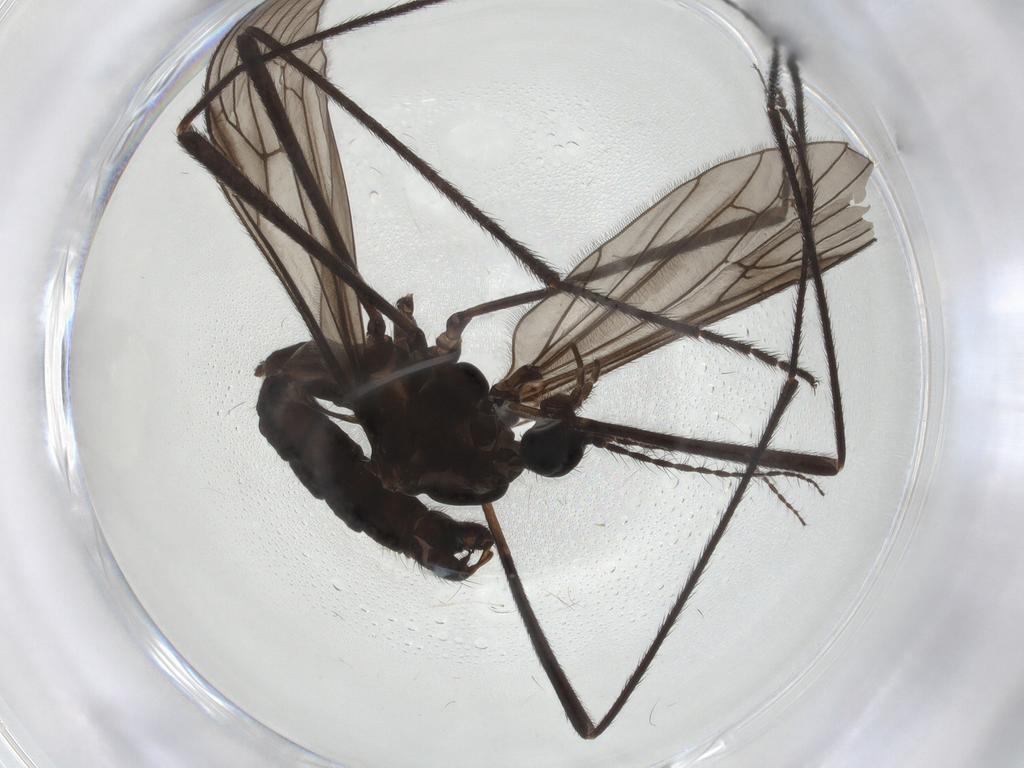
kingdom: Animalia
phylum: Arthropoda
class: Insecta
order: Diptera
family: Limoniidae
